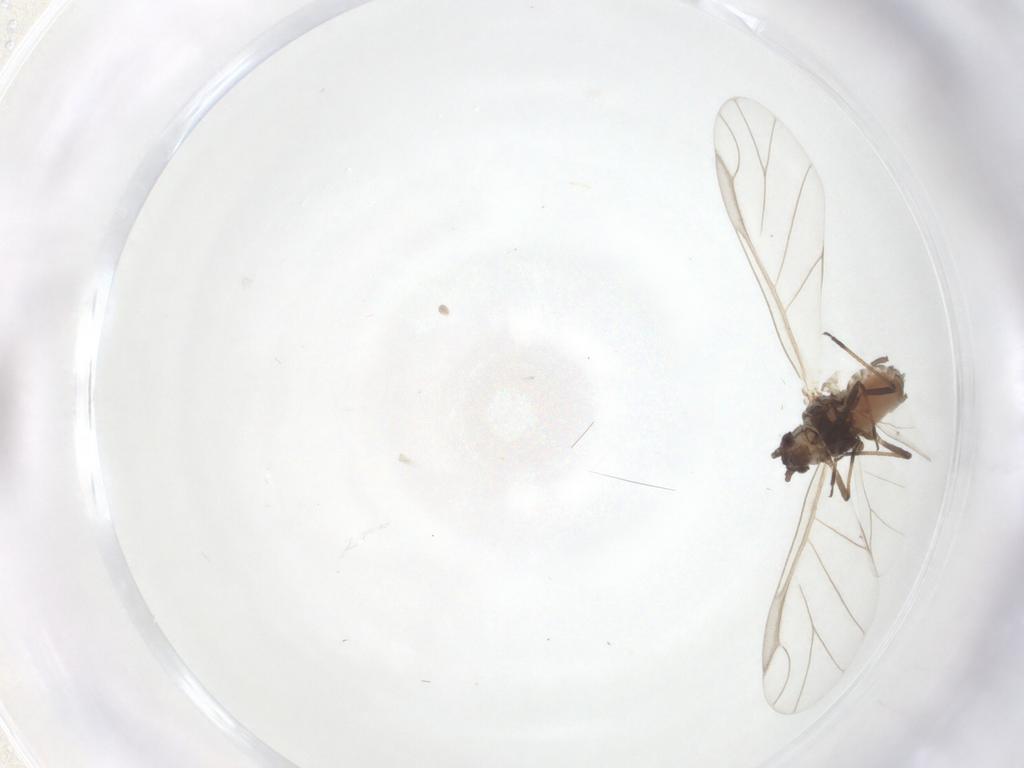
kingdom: Animalia
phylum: Arthropoda
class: Insecta
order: Hemiptera
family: Aphididae
